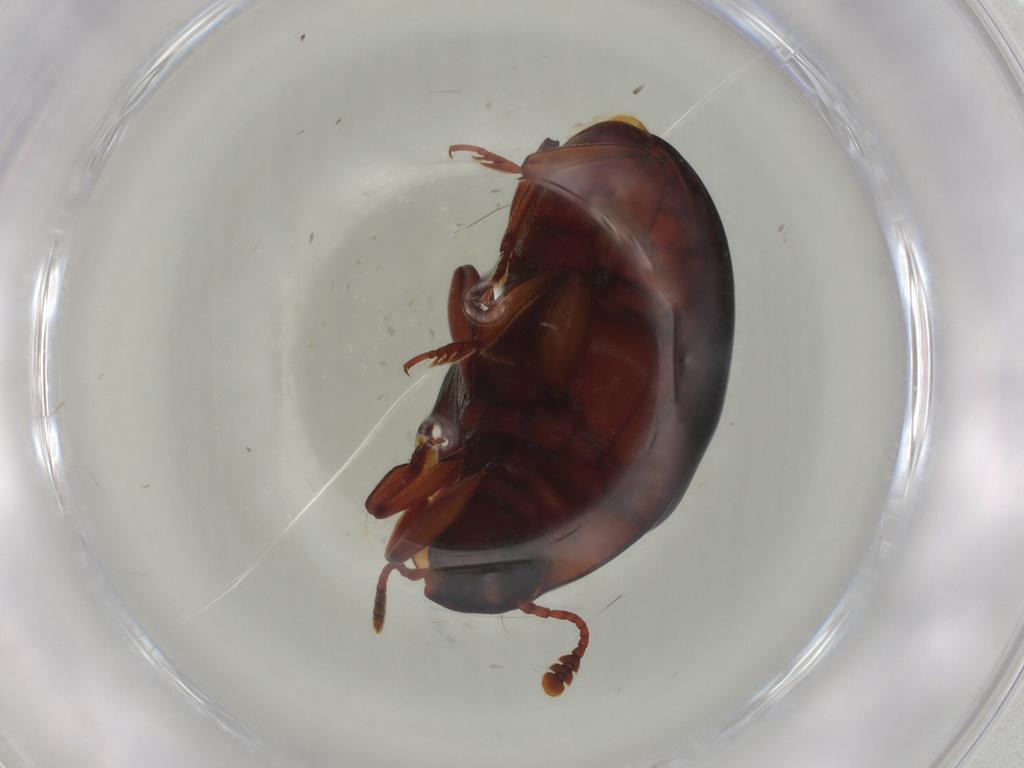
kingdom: Animalia
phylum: Arthropoda
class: Insecta
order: Coleoptera
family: Zopheridae
